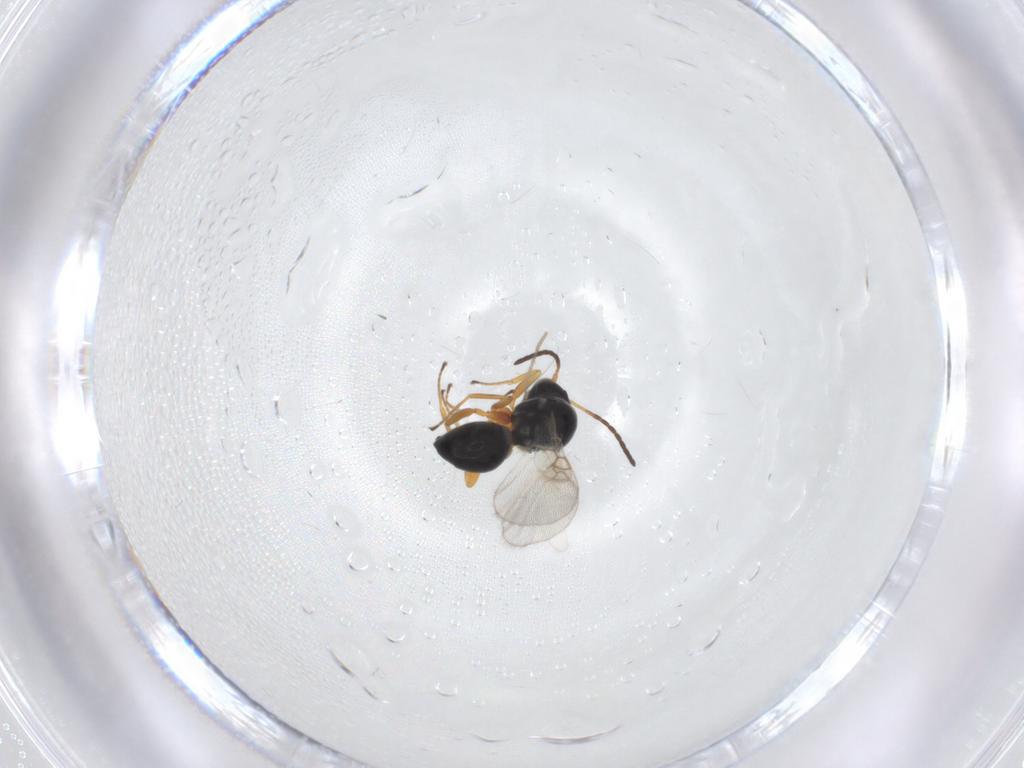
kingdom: Animalia
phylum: Arthropoda
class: Insecta
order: Hymenoptera
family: Figitidae
